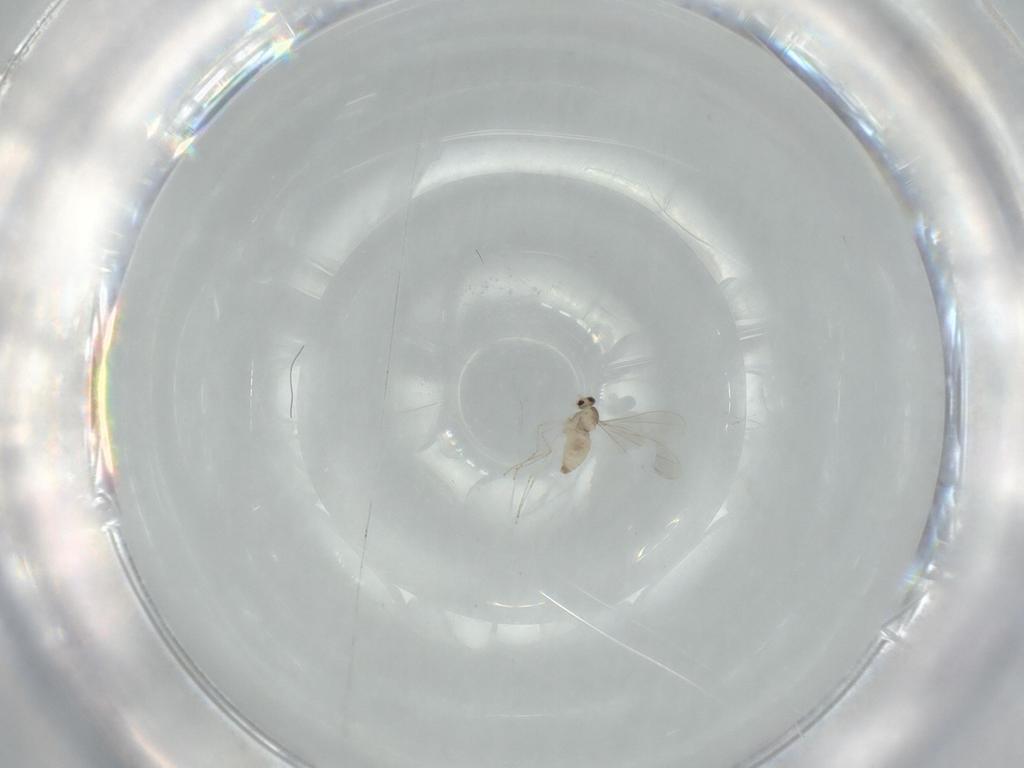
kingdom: Animalia
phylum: Arthropoda
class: Insecta
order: Diptera
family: Cecidomyiidae
